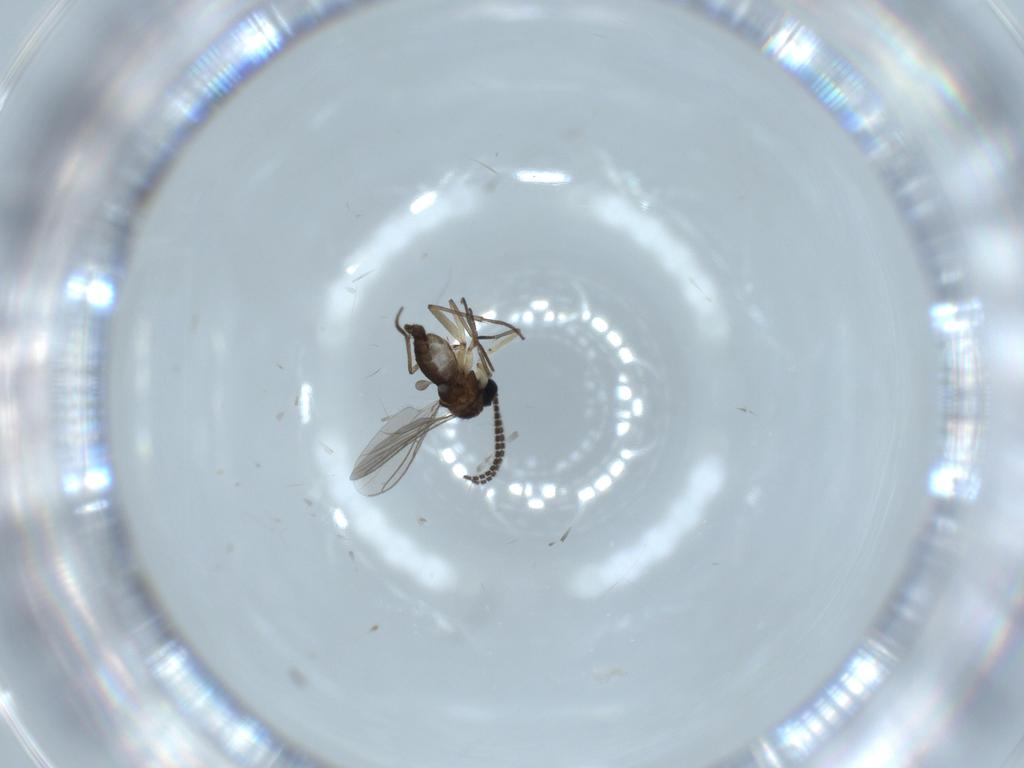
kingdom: Animalia
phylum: Arthropoda
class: Insecta
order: Diptera
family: Sciaridae
